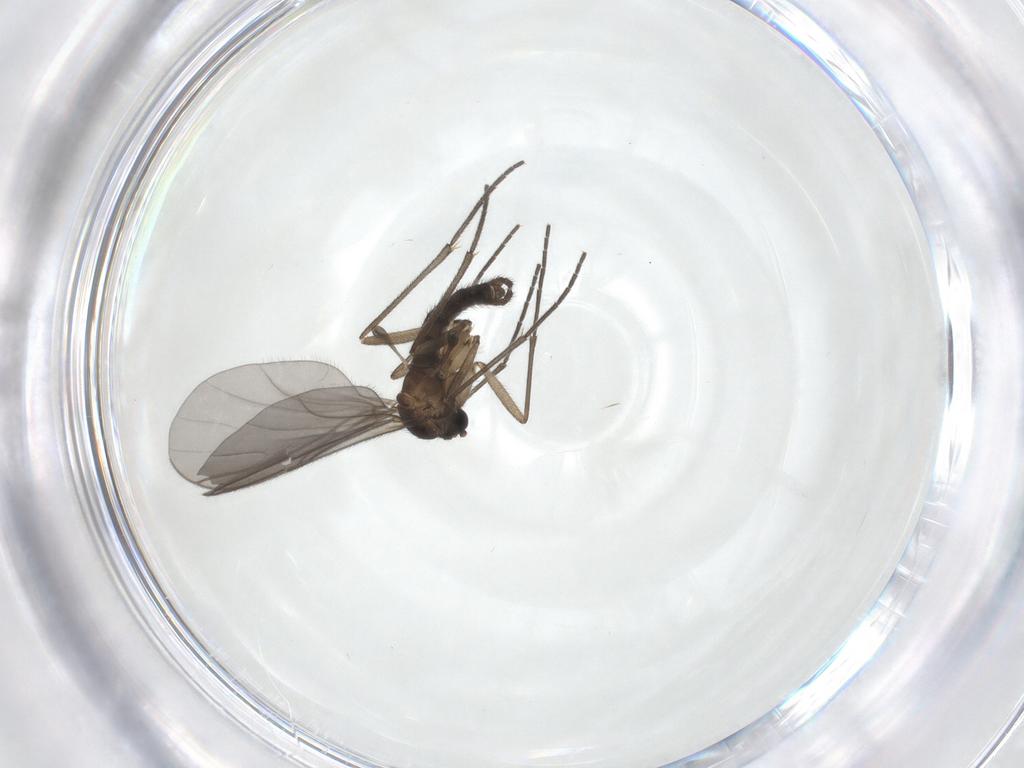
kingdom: Animalia
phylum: Arthropoda
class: Insecta
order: Diptera
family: Sciaridae
